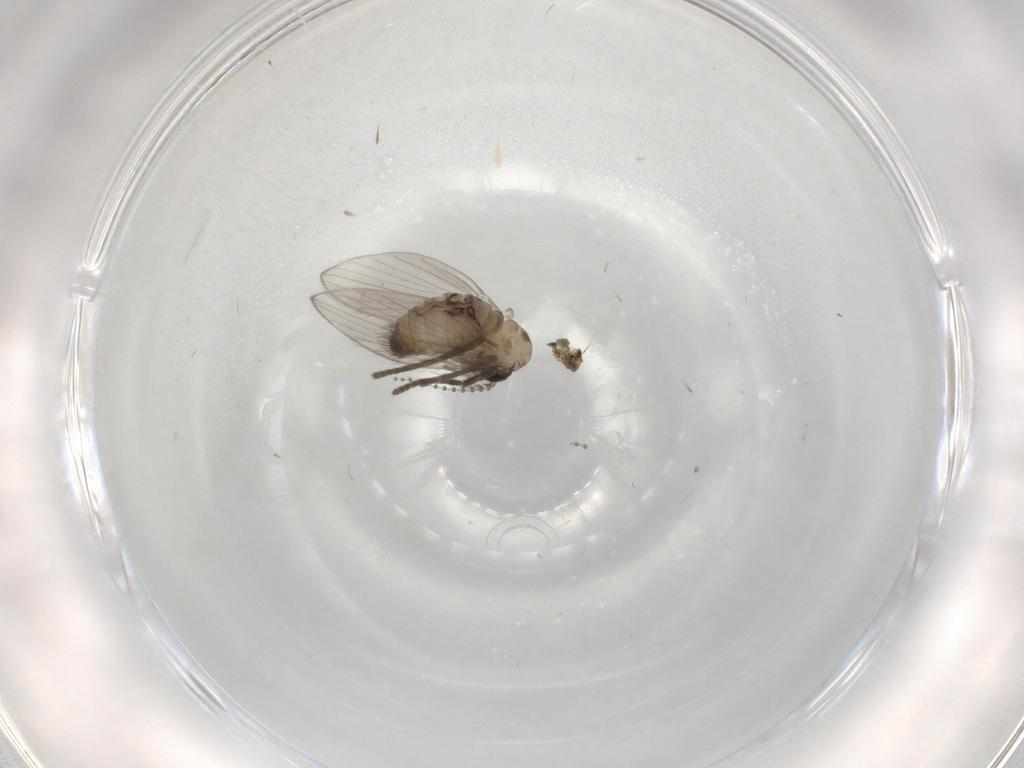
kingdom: Animalia
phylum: Arthropoda
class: Insecta
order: Diptera
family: Psychodidae
